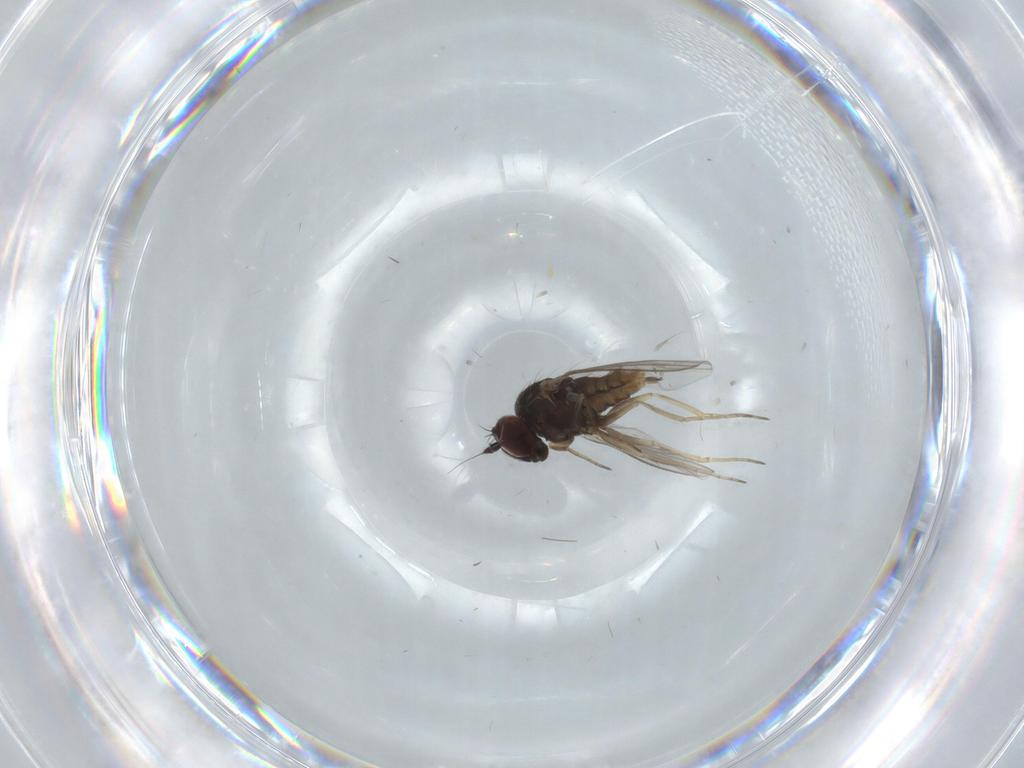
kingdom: Animalia
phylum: Arthropoda
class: Insecta
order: Diptera
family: Dolichopodidae
